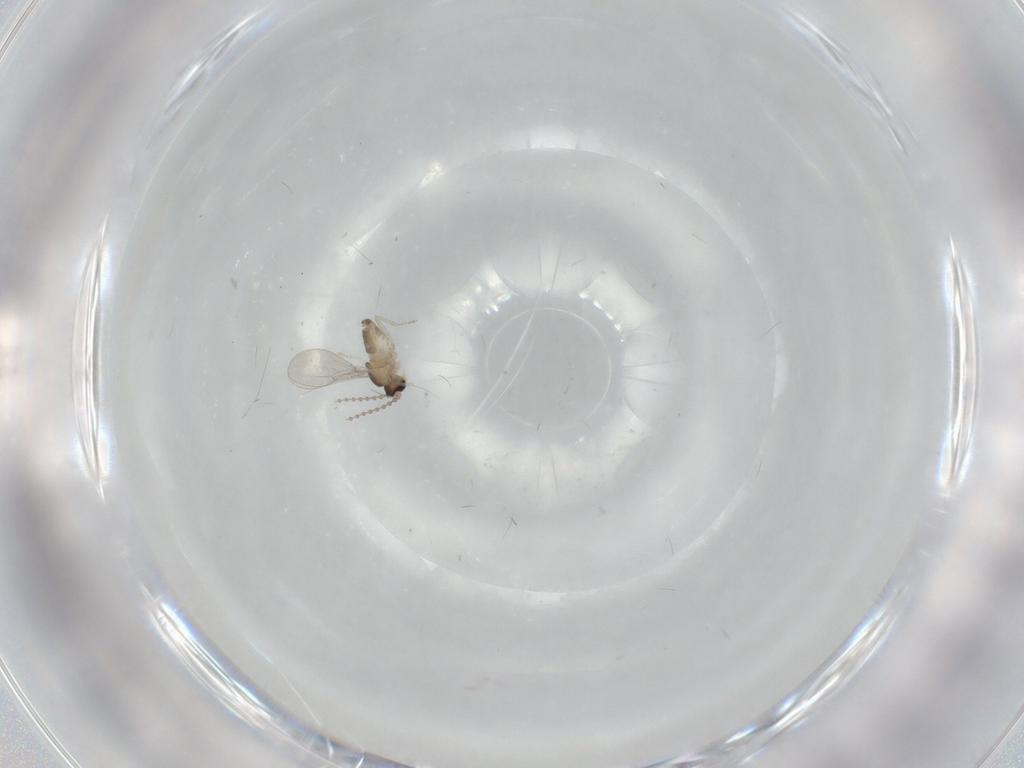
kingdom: Animalia
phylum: Arthropoda
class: Insecta
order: Diptera
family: Cecidomyiidae
